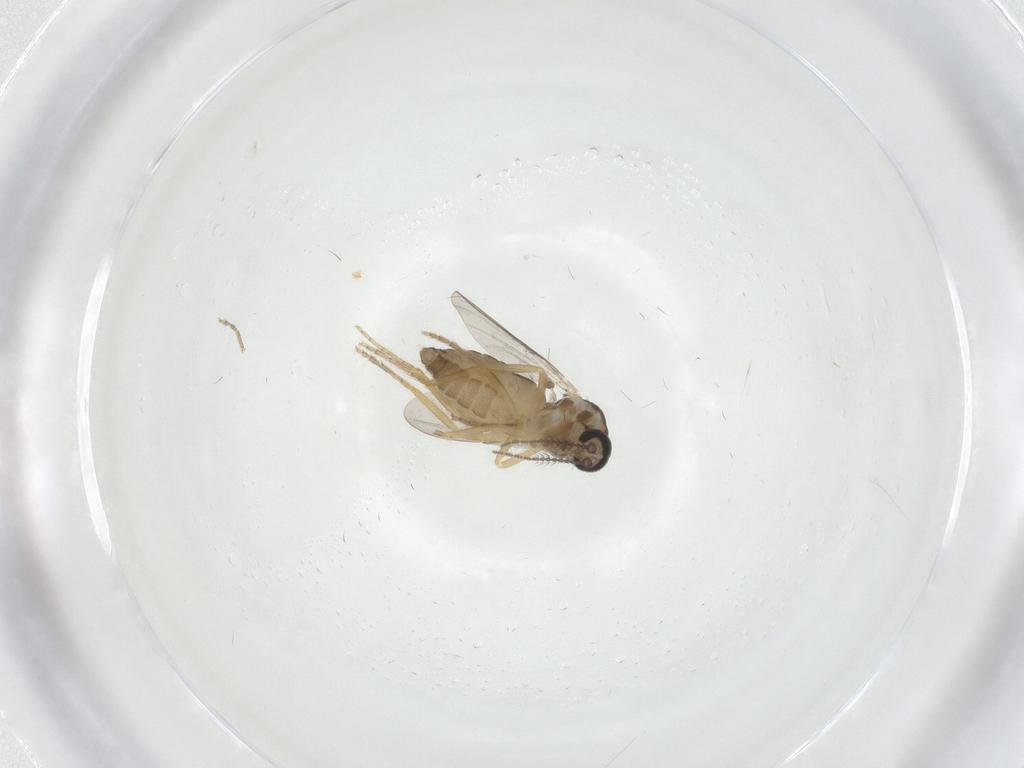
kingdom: Animalia
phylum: Arthropoda
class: Insecta
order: Diptera
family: Ceratopogonidae
